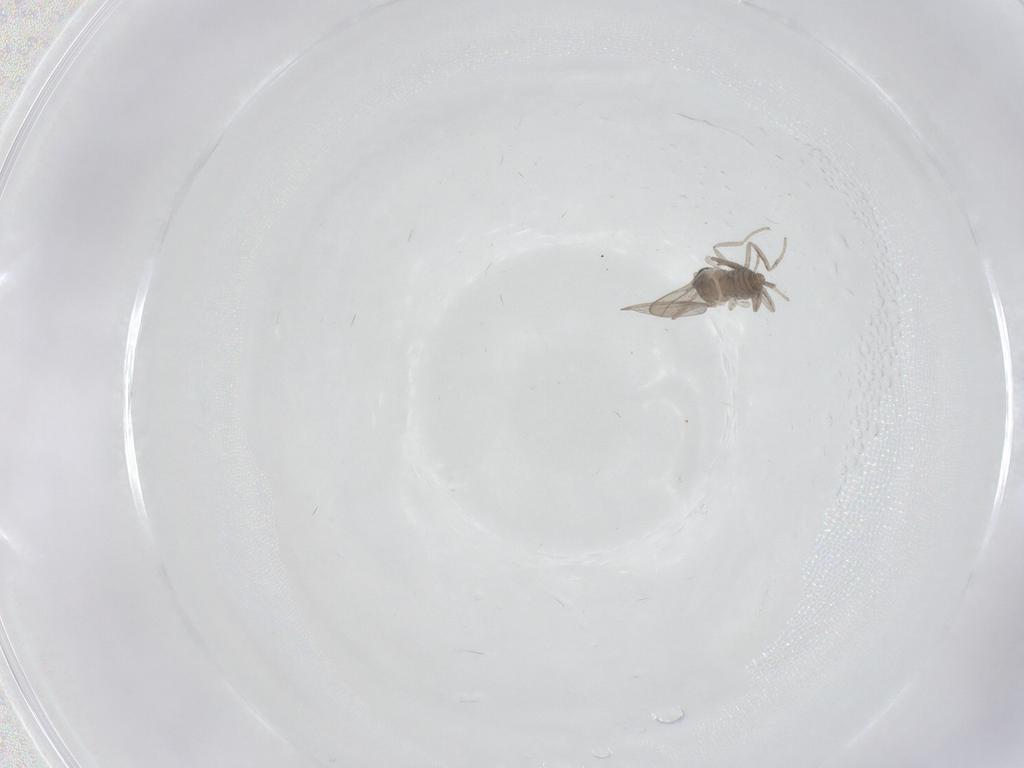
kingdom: Animalia
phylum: Arthropoda
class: Insecta
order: Diptera
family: Cecidomyiidae
